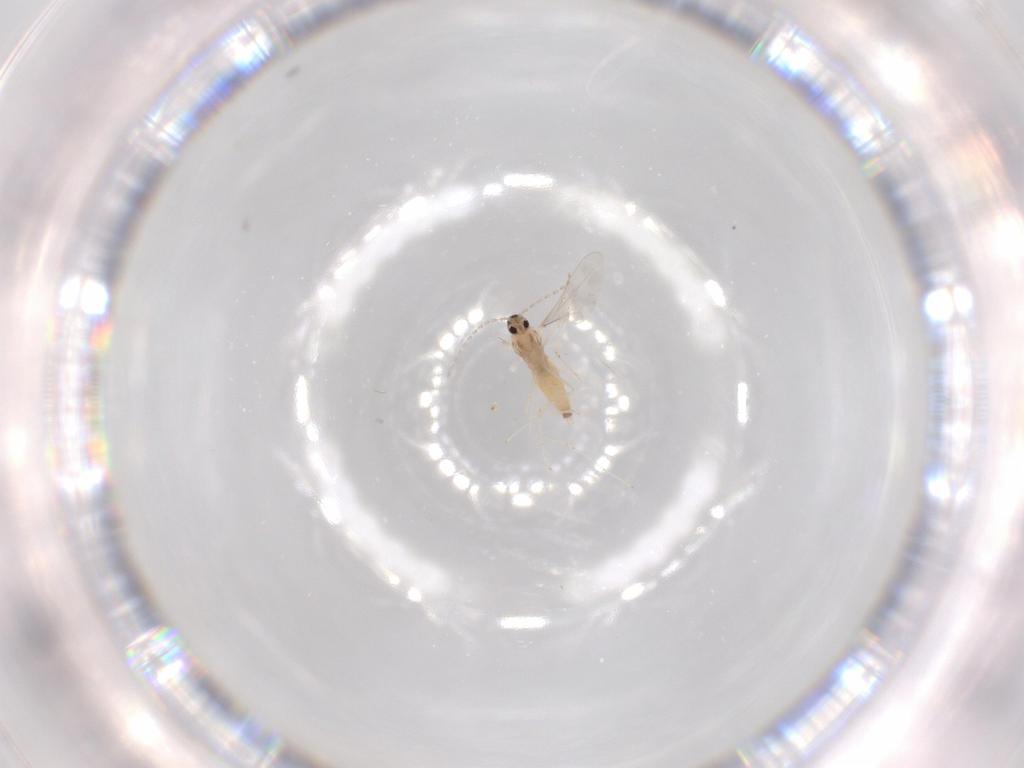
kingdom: Animalia
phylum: Arthropoda
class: Insecta
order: Diptera
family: Cecidomyiidae
